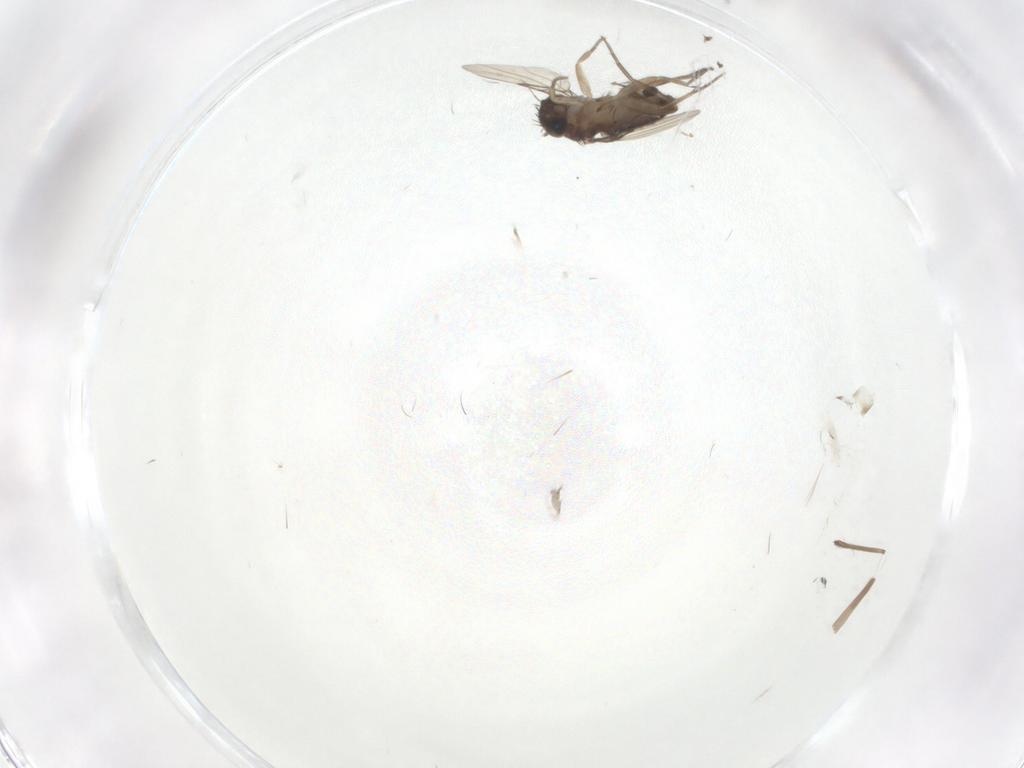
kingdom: Animalia
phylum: Arthropoda
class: Insecta
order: Diptera
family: Phoridae
